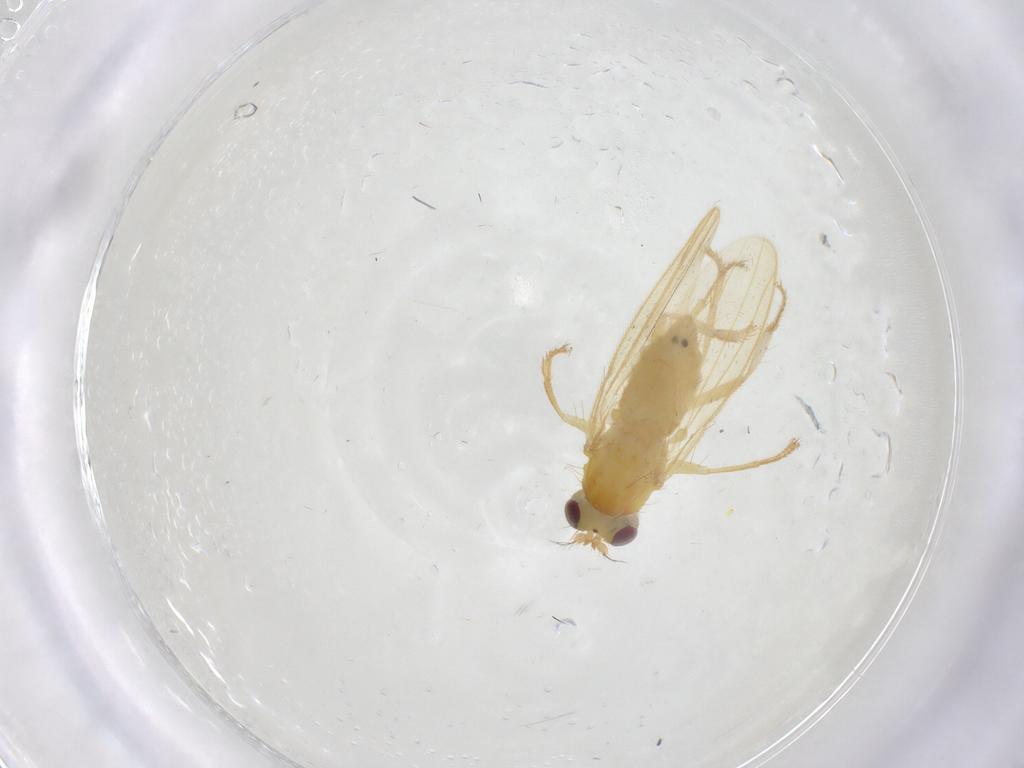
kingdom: Animalia
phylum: Arthropoda
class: Insecta
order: Diptera
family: Periscelididae
